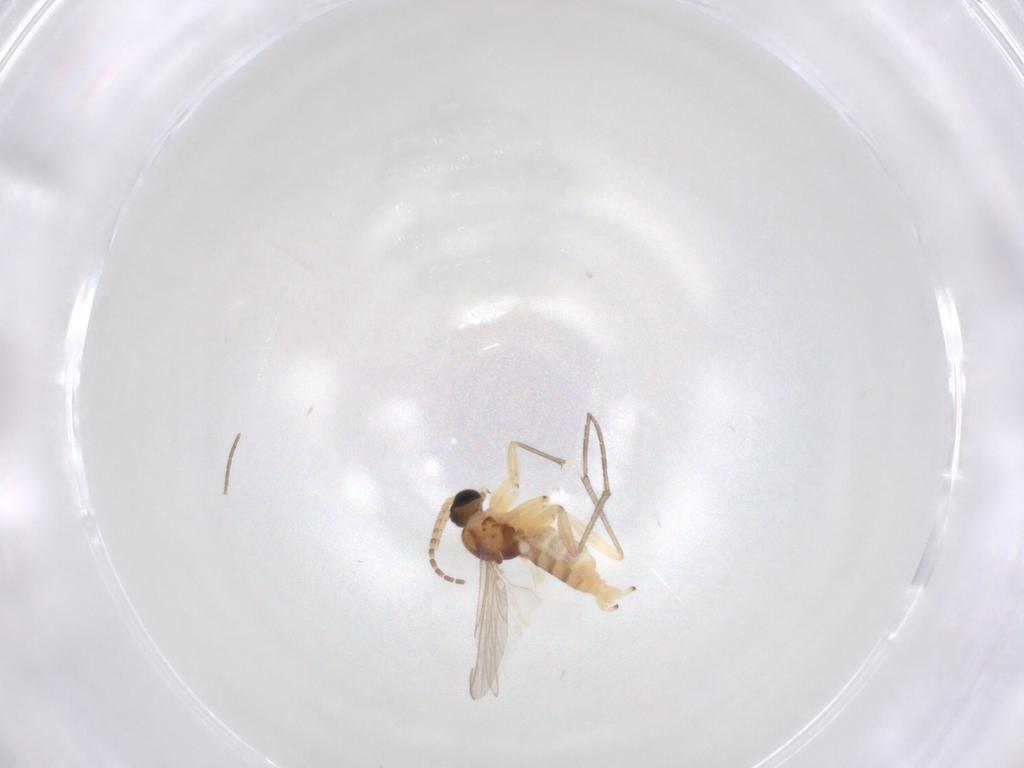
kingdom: Animalia
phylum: Arthropoda
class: Insecta
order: Diptera
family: Sciaridae
